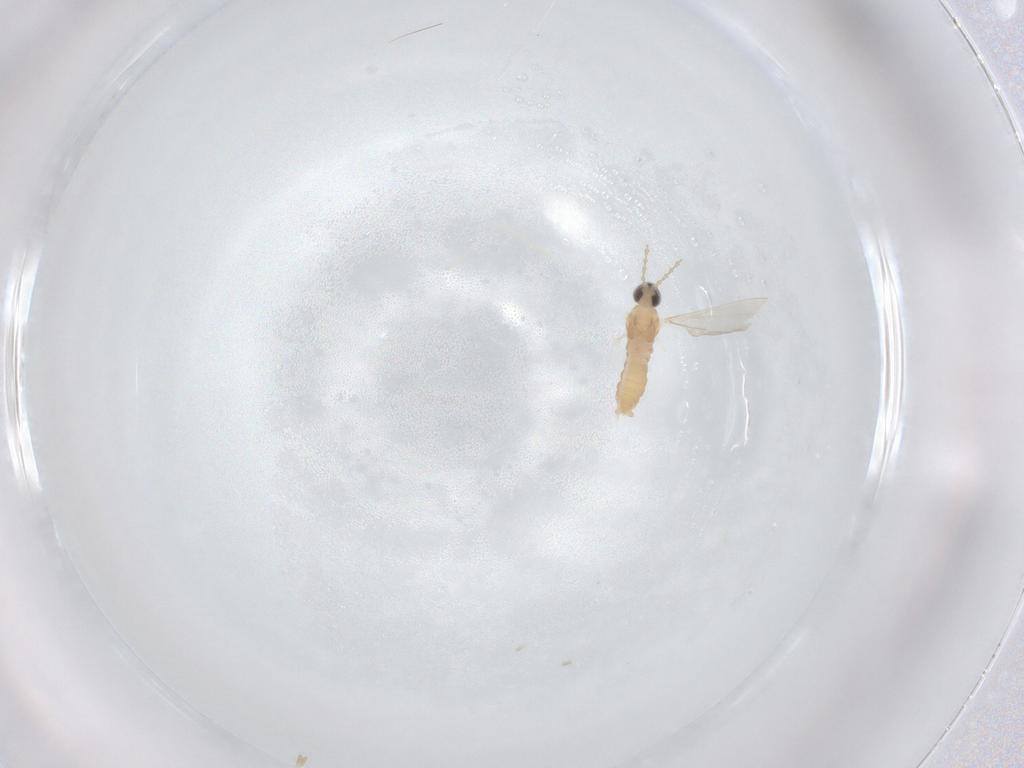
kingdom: Animalia
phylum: Arthropoda
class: Insecta
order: Diptera
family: Cecidomyiidae
